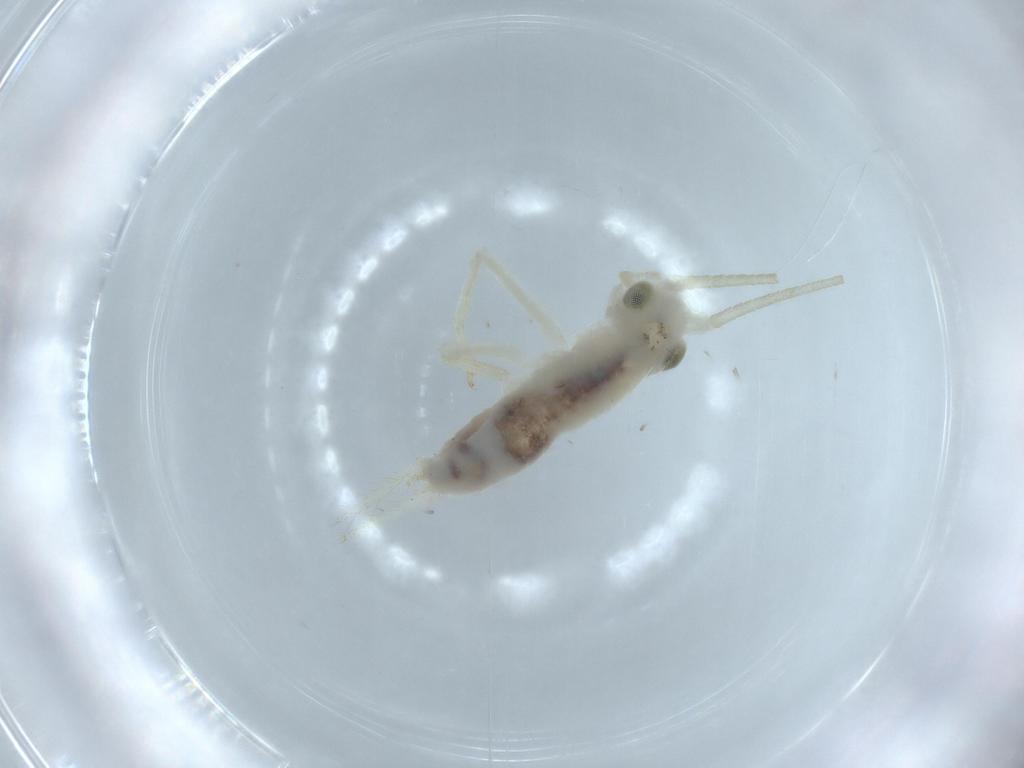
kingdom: Animalia
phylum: Arthropoda
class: Insecta
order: Orthoptera
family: Trigonidiidae
